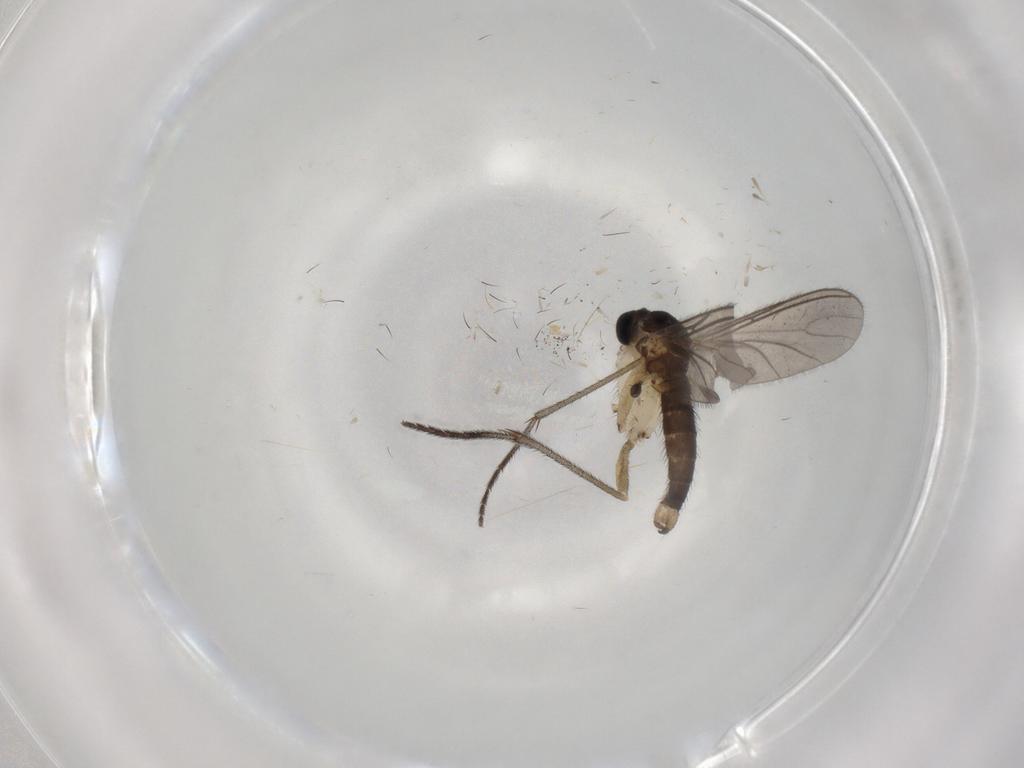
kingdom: Animalia
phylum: Arthropoda
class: Insecta
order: Diptera
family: Sciaridae
